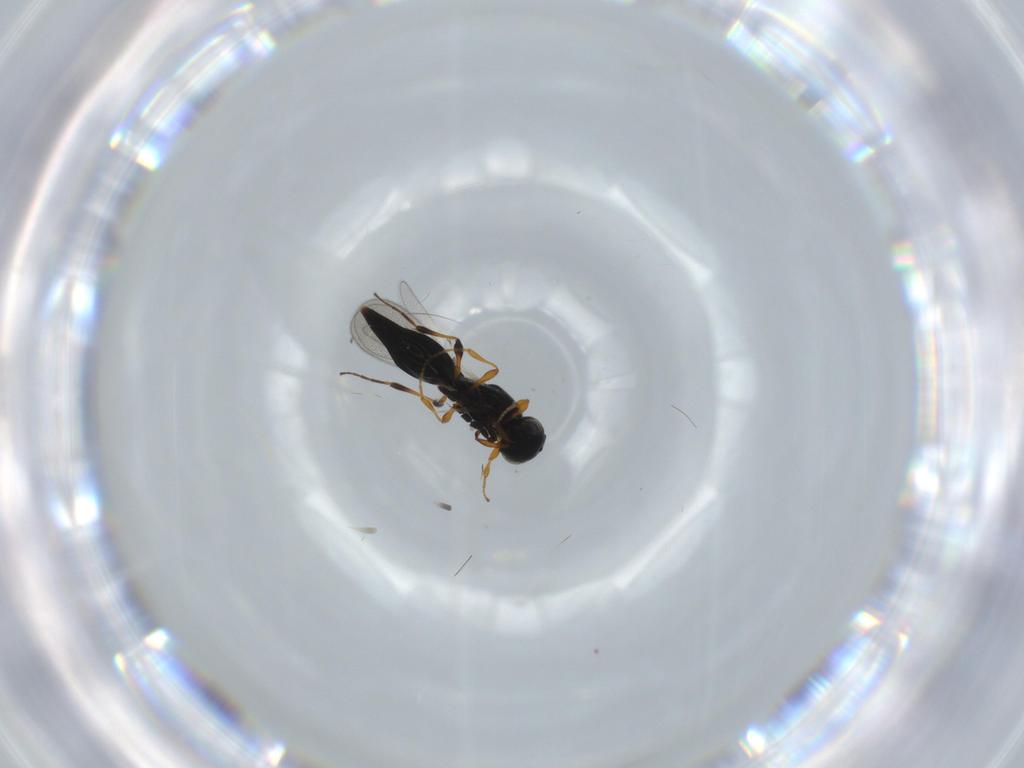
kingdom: Animalia
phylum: Arthropoda
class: Insecta
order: Hymenoptera
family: Platygastridae
